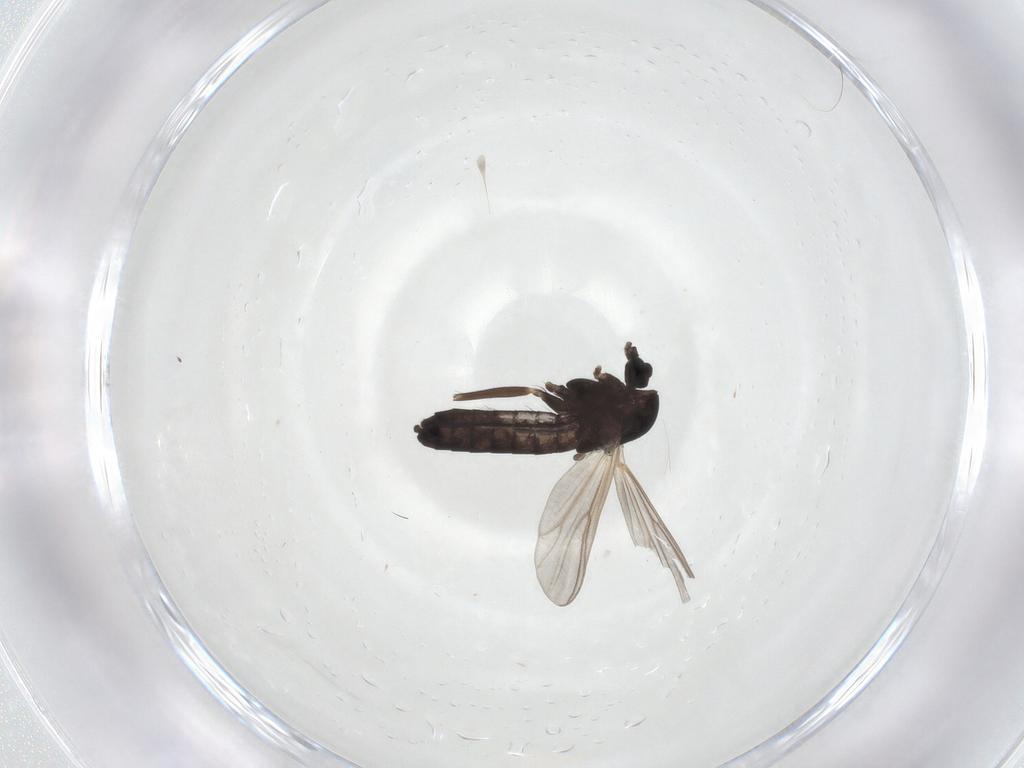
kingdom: Animalia
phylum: Arthropoda
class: Insecta
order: Diptera
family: Chironomidae
